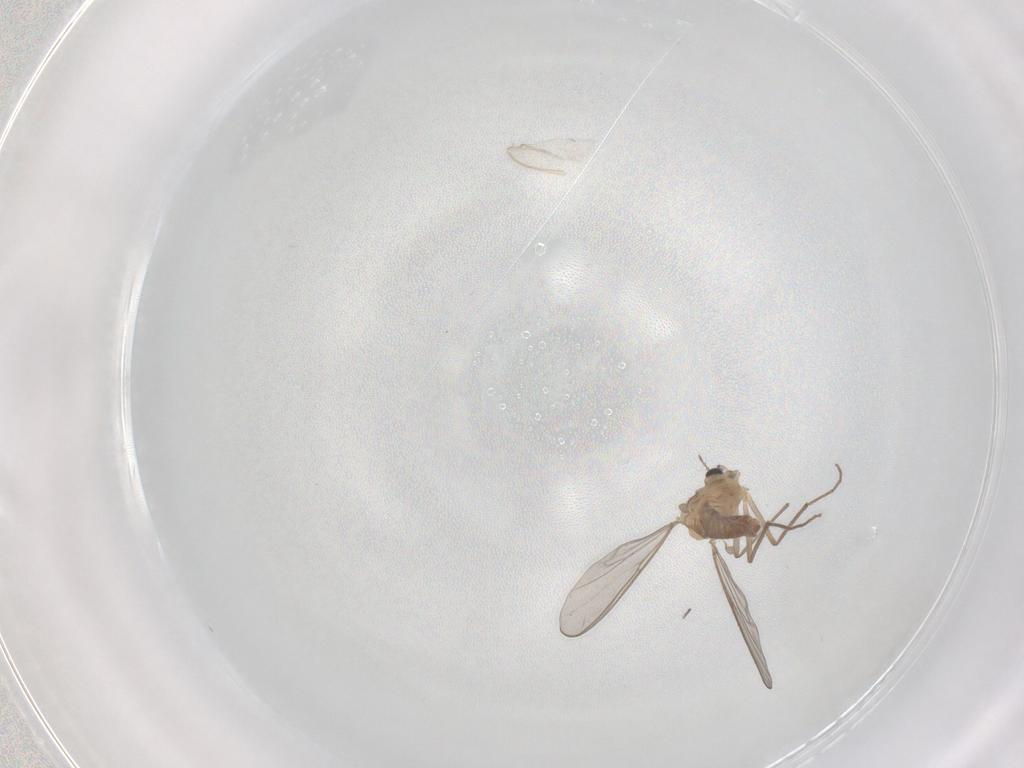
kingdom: Animalia
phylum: Arthropoda
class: Insecta
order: Diptera
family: Chironomidae
